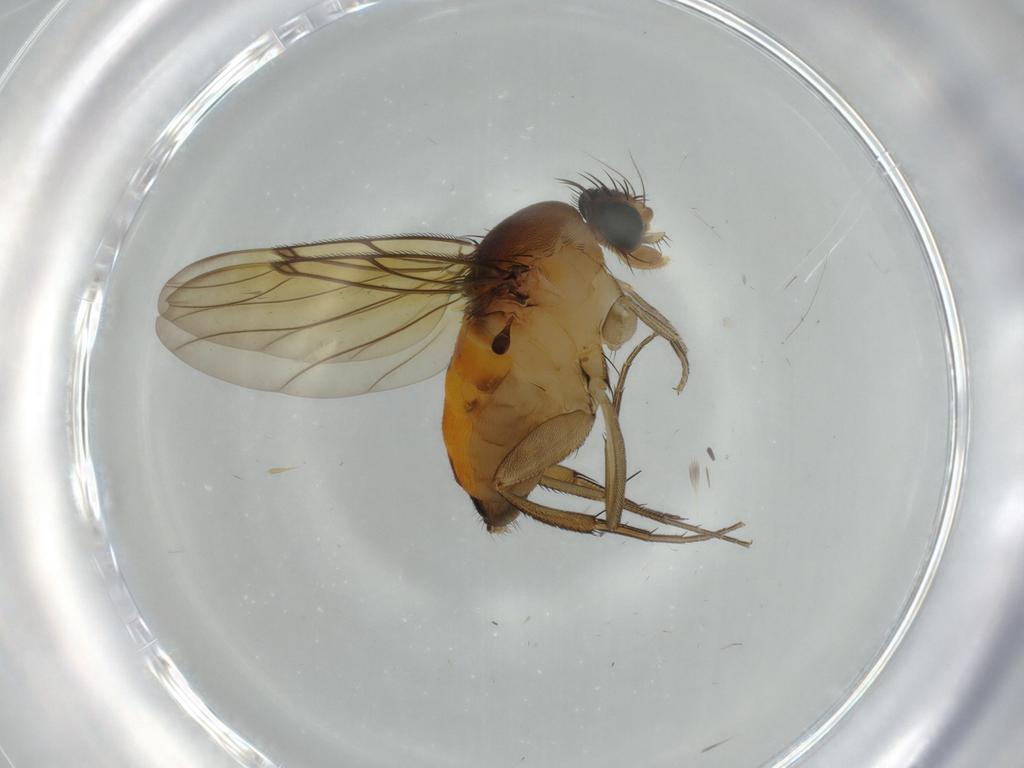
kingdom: Animalia
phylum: Arthropoda
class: Insecta
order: Diptera
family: Phoridae
